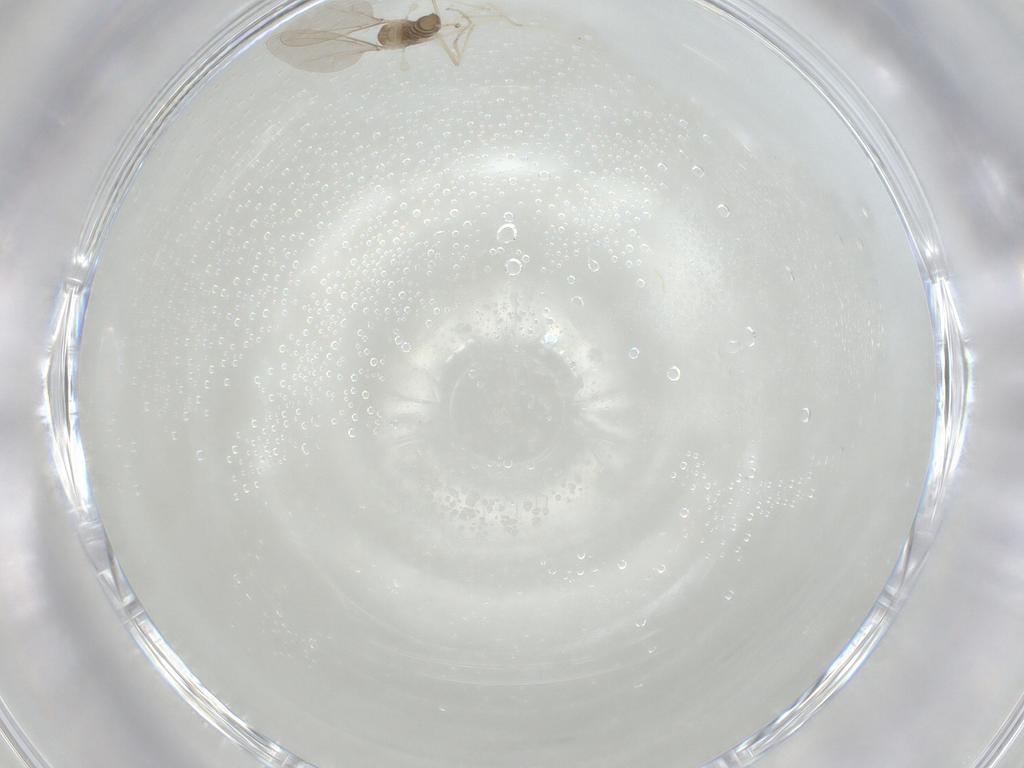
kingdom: Animalia
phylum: Arthropoda
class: Insecta
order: Diptera
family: Cecidomyiidae
